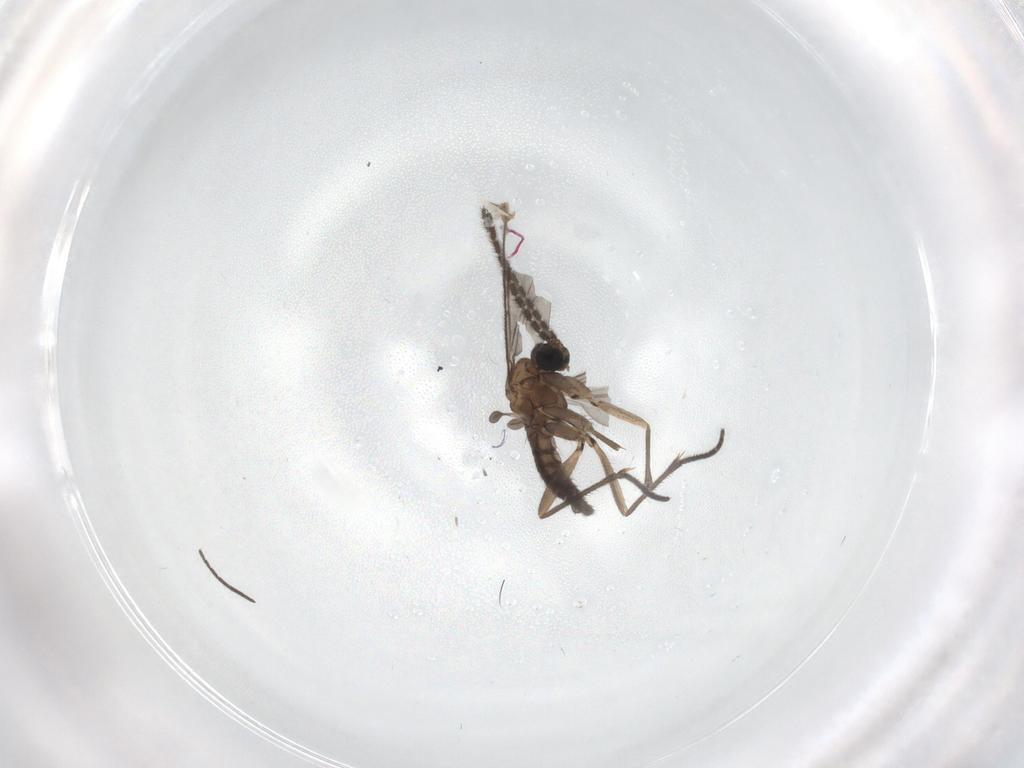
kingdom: Animalia
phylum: Arthropoda
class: Insecta
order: Diptera
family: Sciaridae
